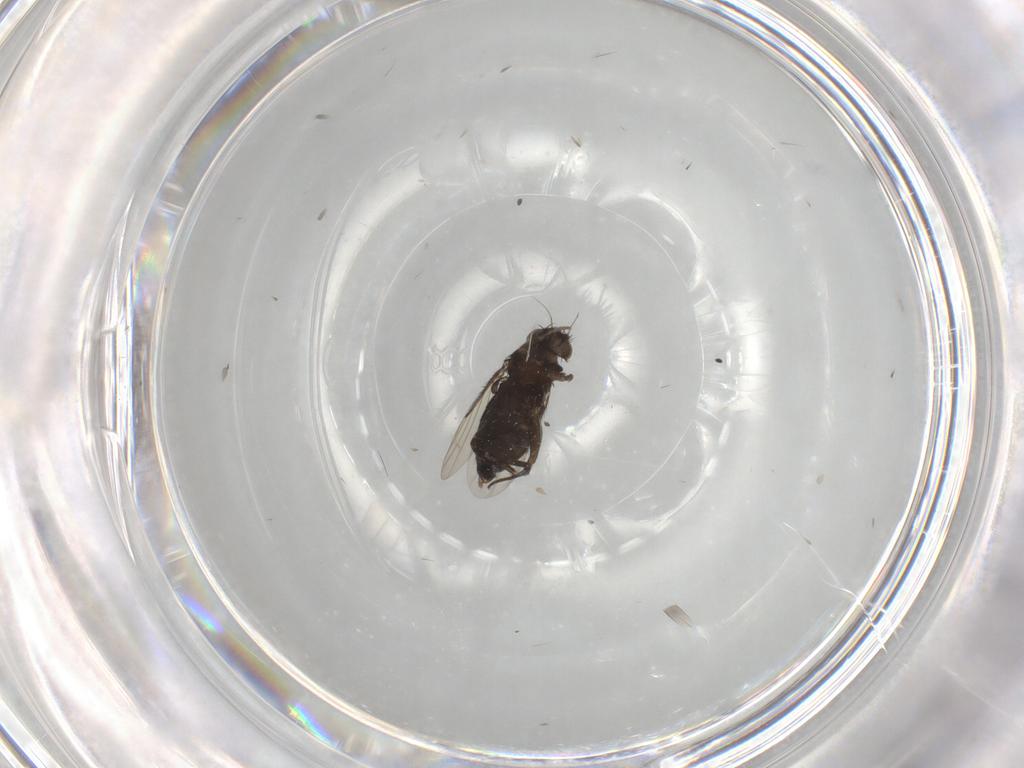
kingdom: Animalia
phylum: Arthropoda
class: Insecta
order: Diptera
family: Phoridae
